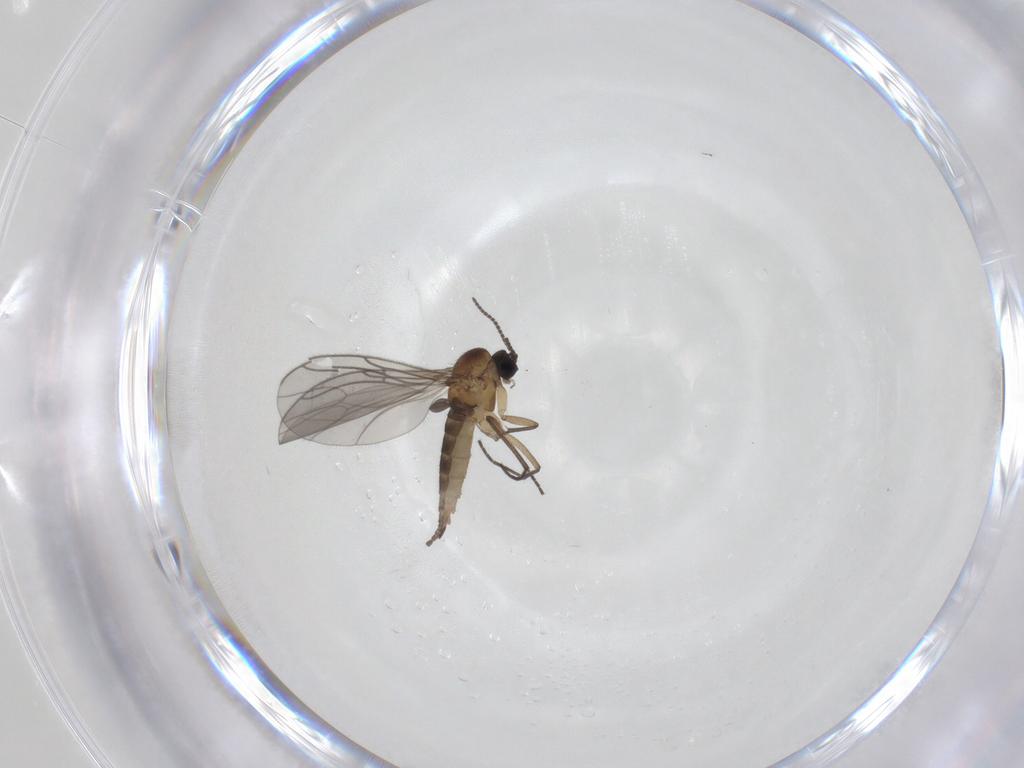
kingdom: Animalia
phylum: Arthropoda
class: Insecta
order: Diptera
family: Sciaridae
